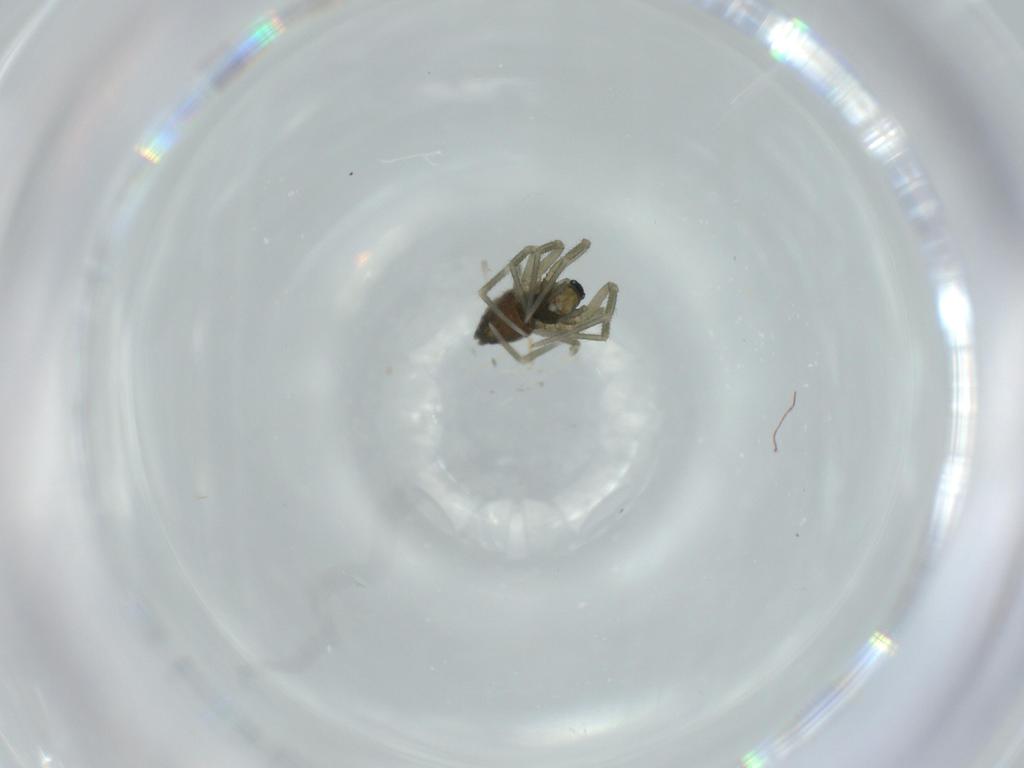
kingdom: Animalia
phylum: Arthropoda
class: Arachnida
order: Araneae
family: Linyphiidae
